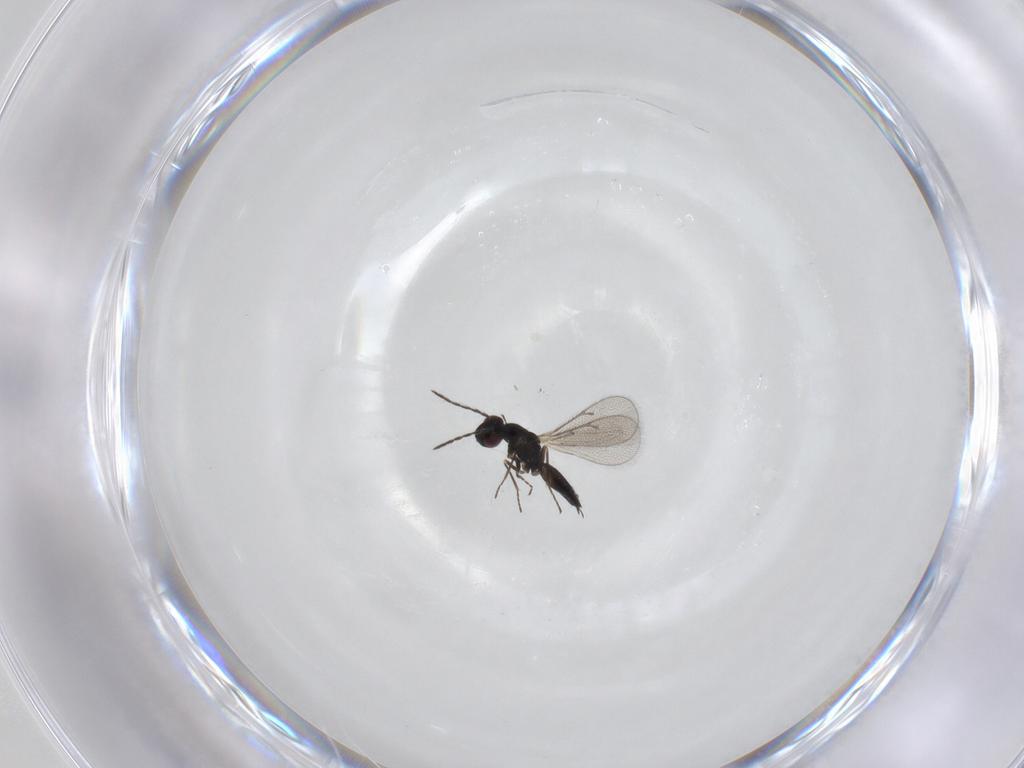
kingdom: Animalia
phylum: Arthropoda
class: Insecta
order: Hymenoptera
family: Eulophidae
